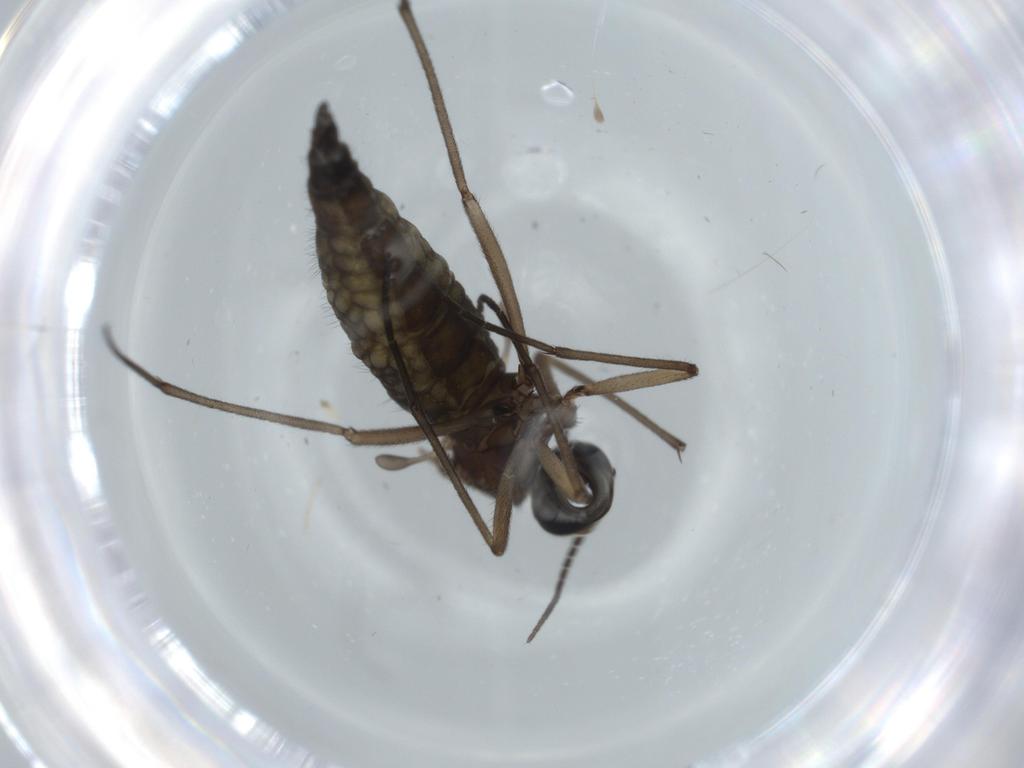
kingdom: Animalia
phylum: Arthropoda
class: Insecta
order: Diptera
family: Sciaridae
